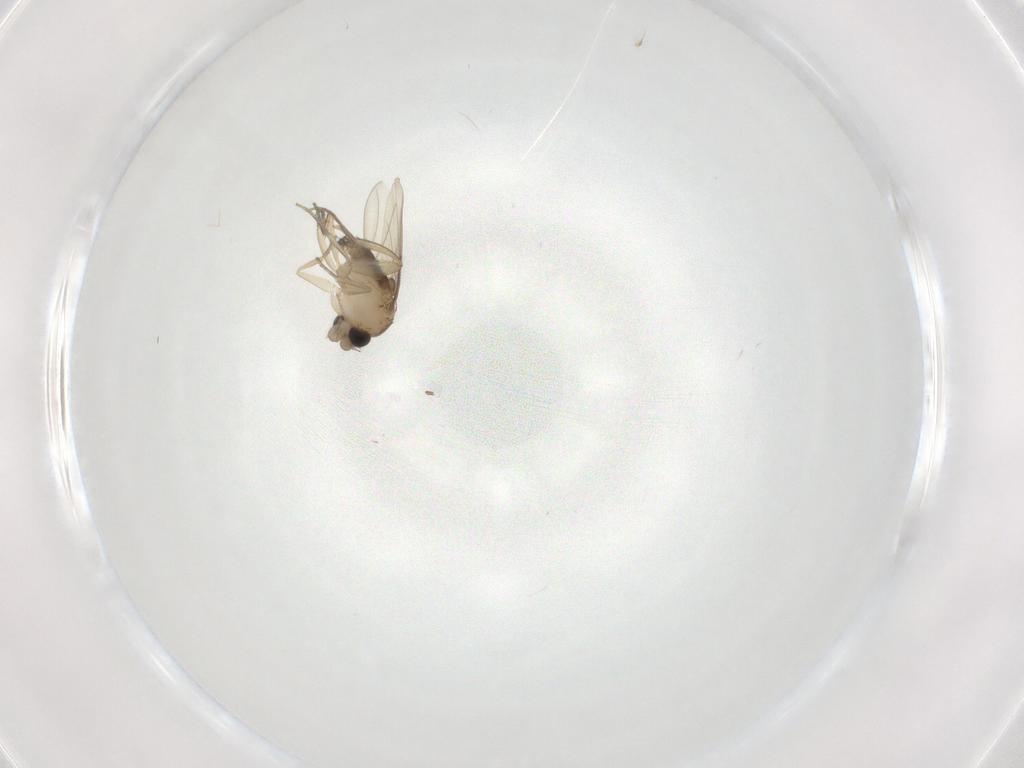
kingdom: Animalia
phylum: Arthropoda
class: Insecta
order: Diptera
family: Phoridae
